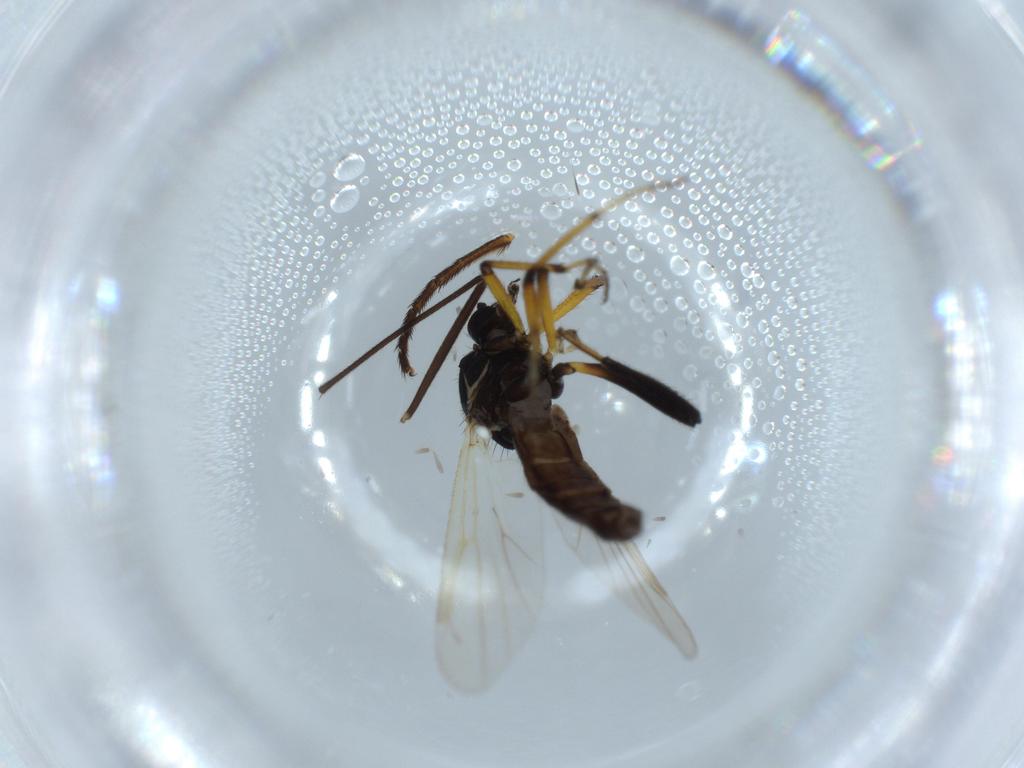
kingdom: Animalia
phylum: Arthropoda
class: Insecta
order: Diptera
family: Ceratopogonidae
